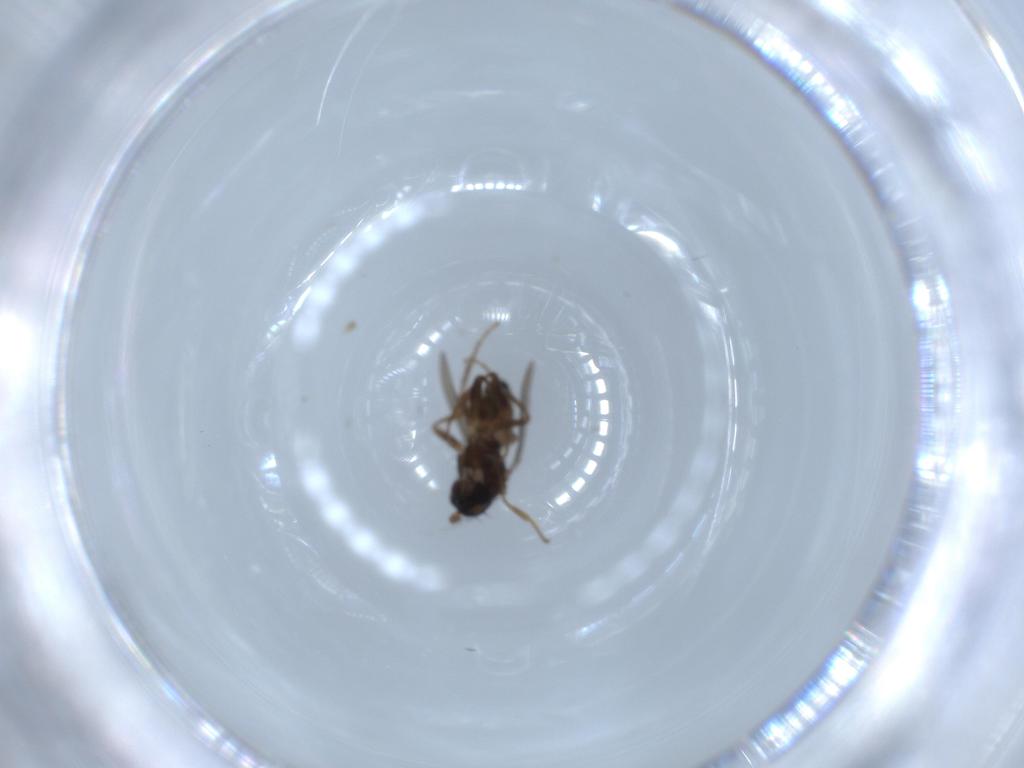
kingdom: Animalia
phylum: Arthropoda
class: Insecta
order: Diptera
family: Sphaeroceridae
